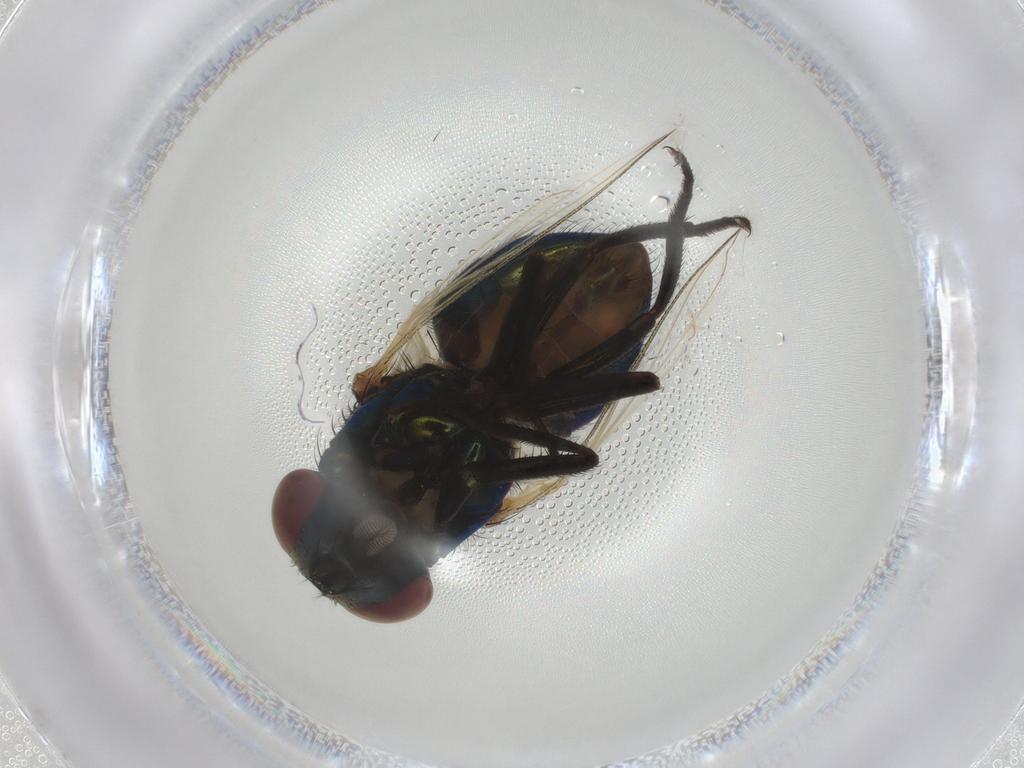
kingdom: Animalia
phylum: Arthropoda
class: Insecta
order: Diptera
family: Muscidae
